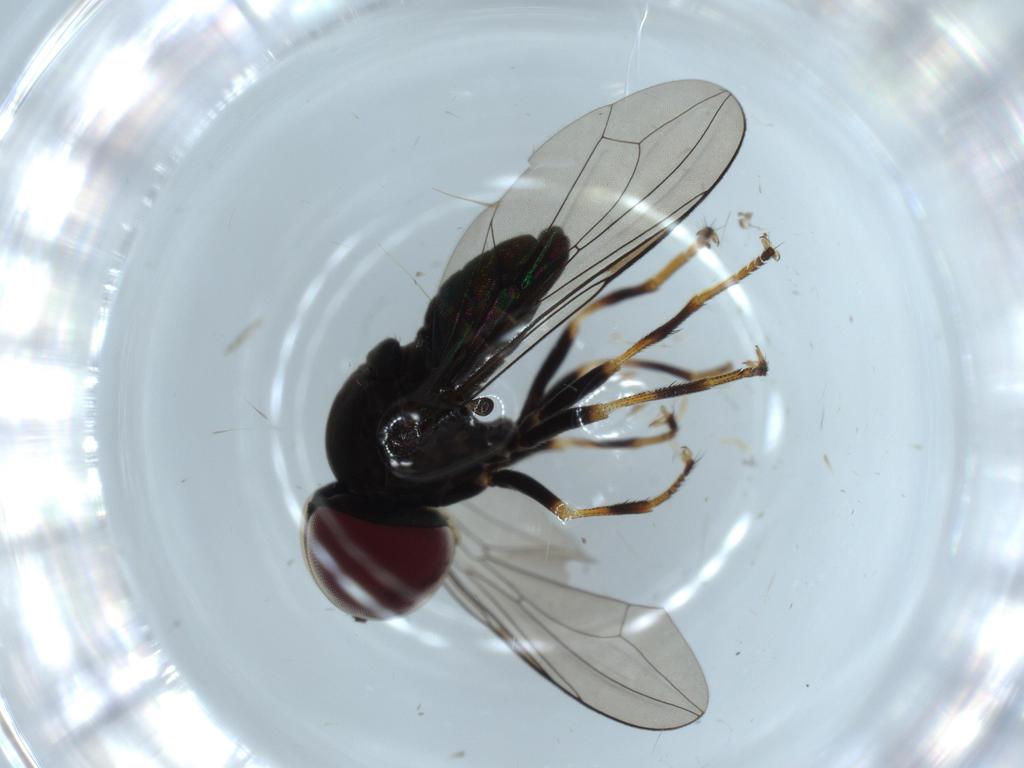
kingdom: Animalia
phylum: Arthropoda
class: Insecta
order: Diptera
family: Pipunculidae
